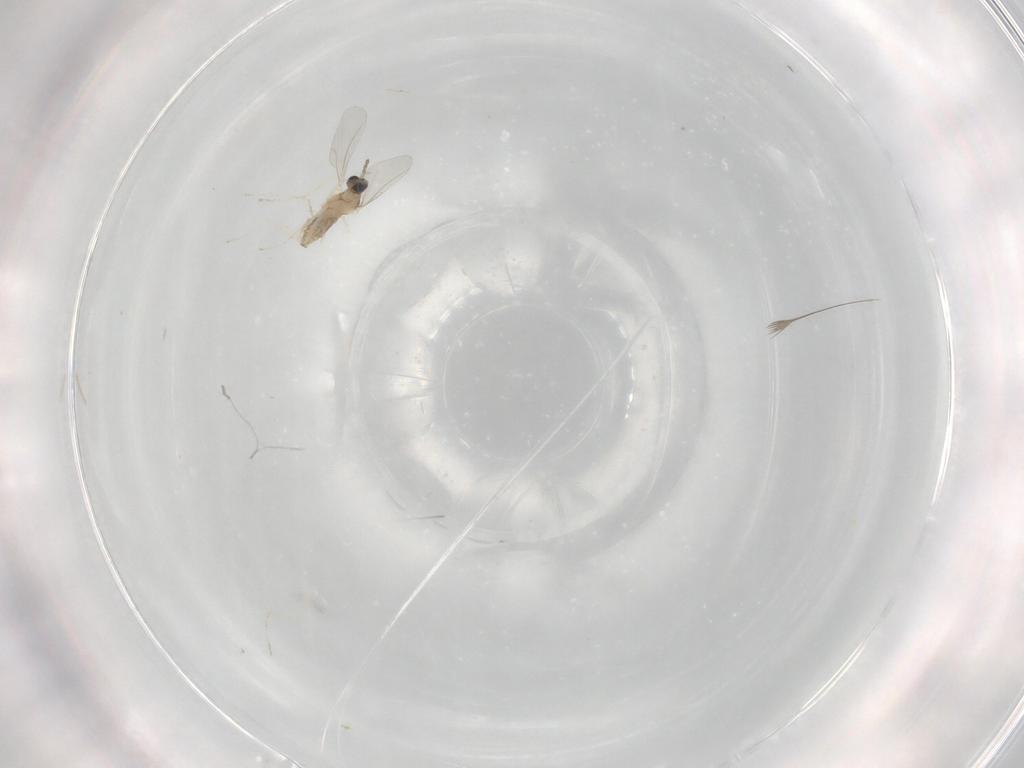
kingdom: Animalia
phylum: Arthropoda
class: Insecta
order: Diptera
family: Cecidomyiidae
